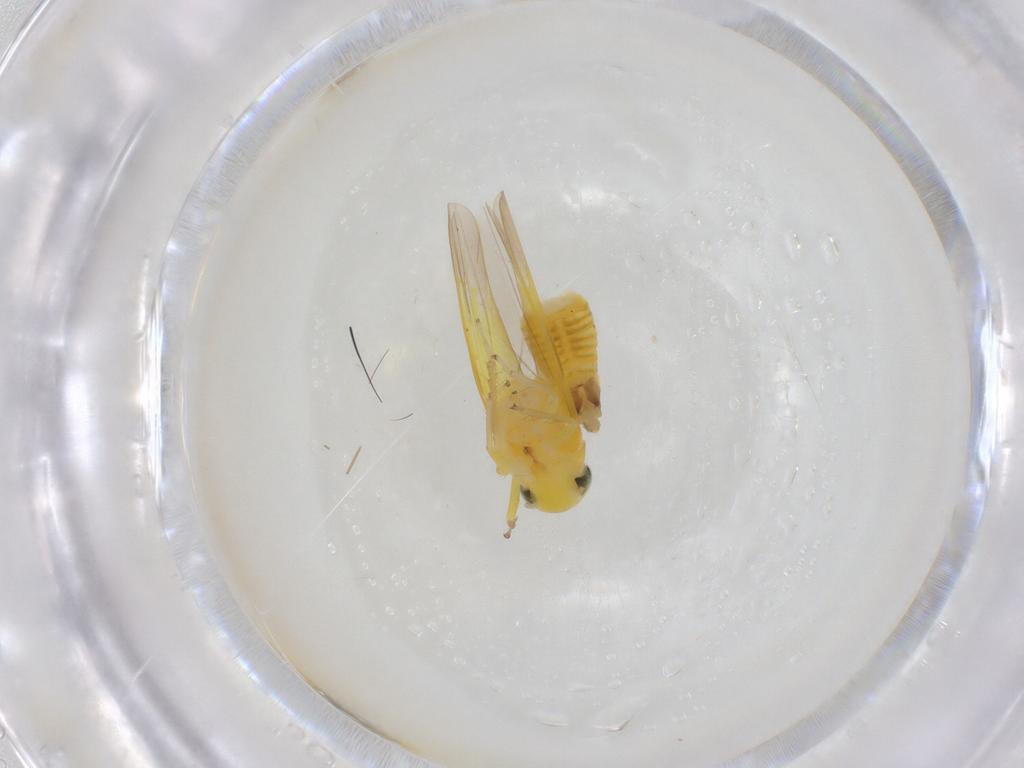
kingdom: Animalia
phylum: Arthropoda
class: Insecta
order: Hemiptera
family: Cicadellidae
